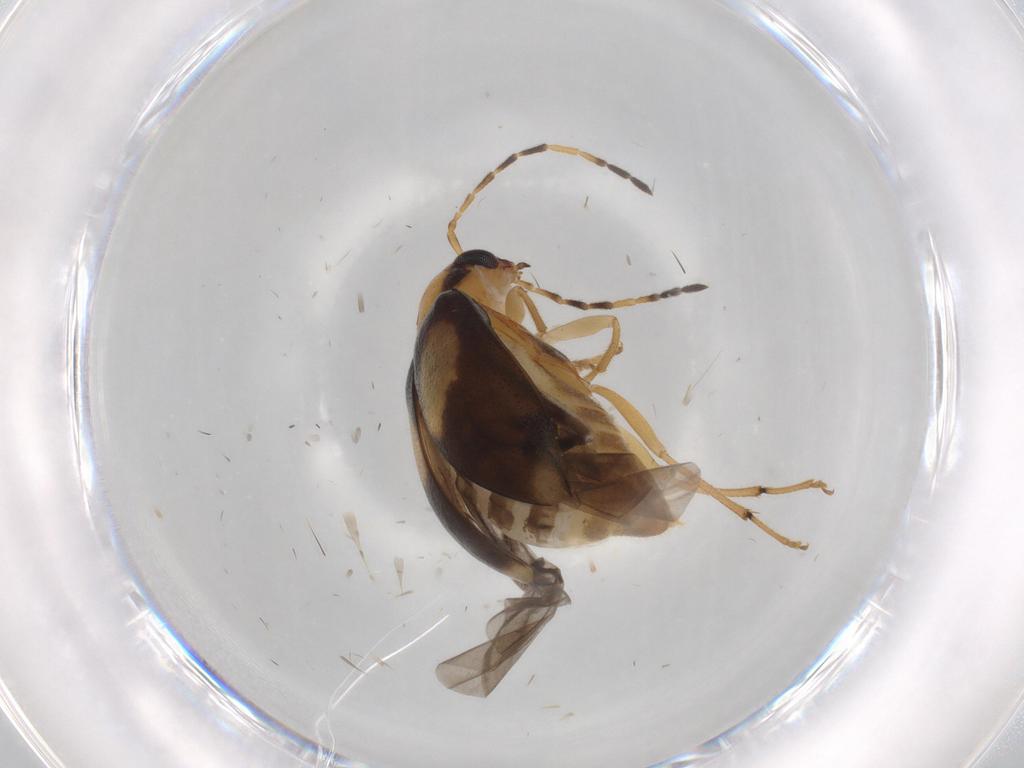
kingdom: Animalia
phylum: Arthropoda
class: Insecta
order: Coleoptera
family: Chrysomelidae
